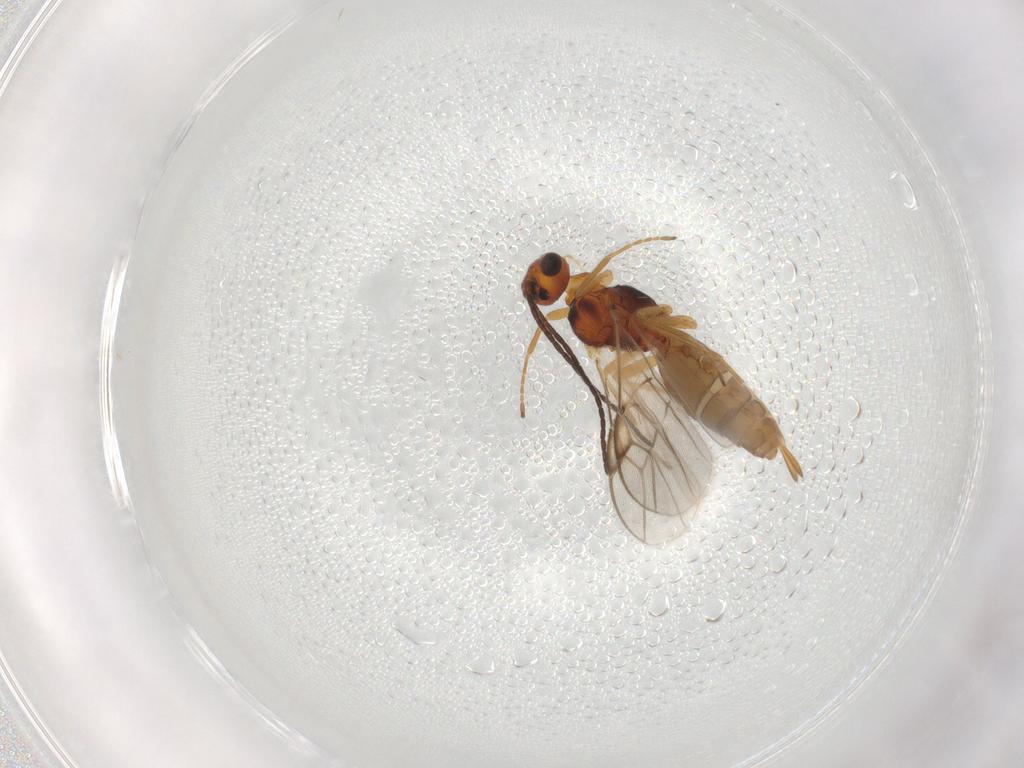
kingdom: Animalia
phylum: Arthropoda
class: Insecta
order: Hymenoptera
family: Braconidae
